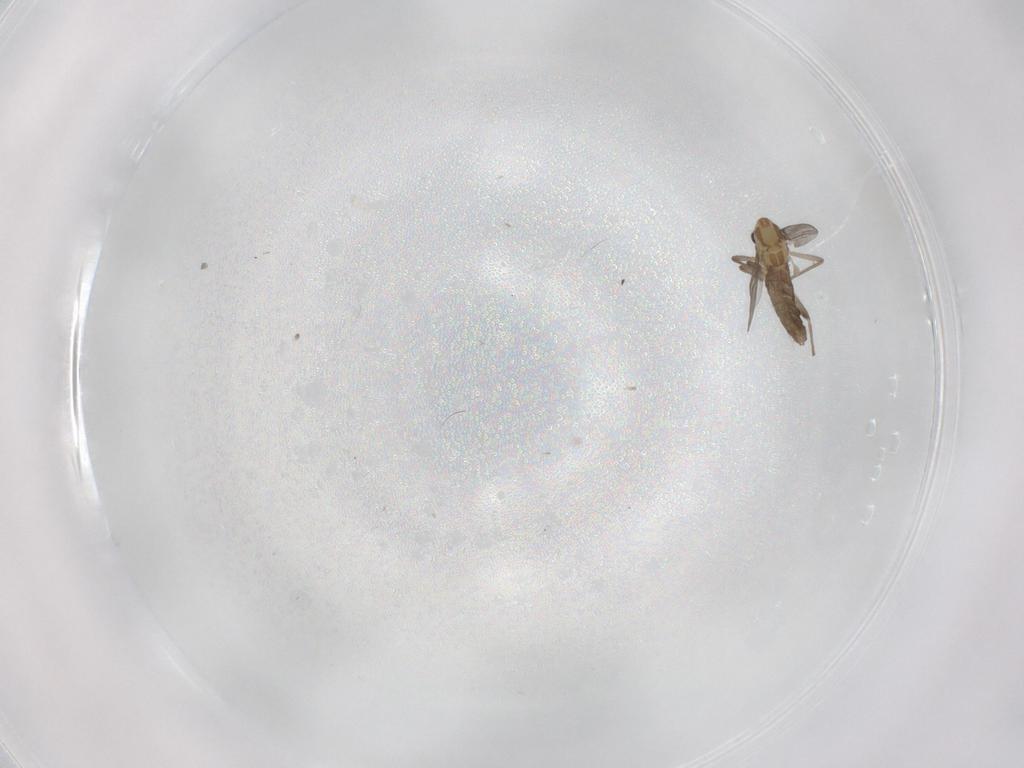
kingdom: Animalia
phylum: Arthropoda
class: Insecta
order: Diptera
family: Chironomidae
